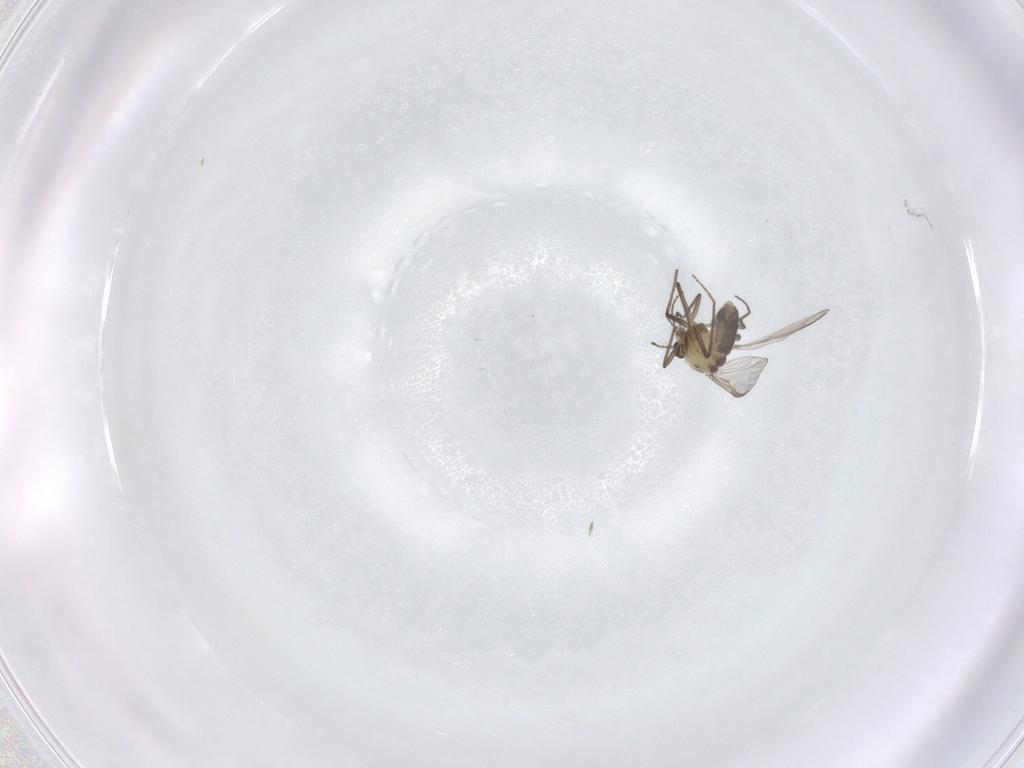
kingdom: Animalia
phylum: Arthropoda
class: Insecta
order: Diptera
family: Chironomidae
